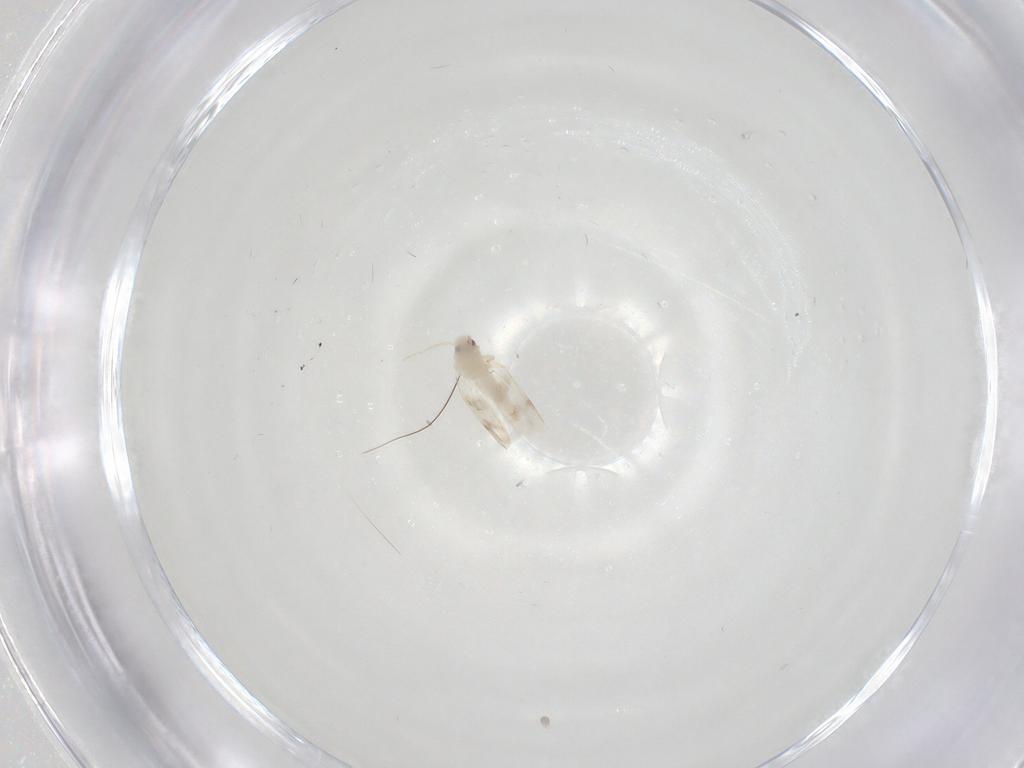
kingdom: Animalia
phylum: Arthropoda
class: Insecta
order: Hemiptera
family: Aleyrodidae
